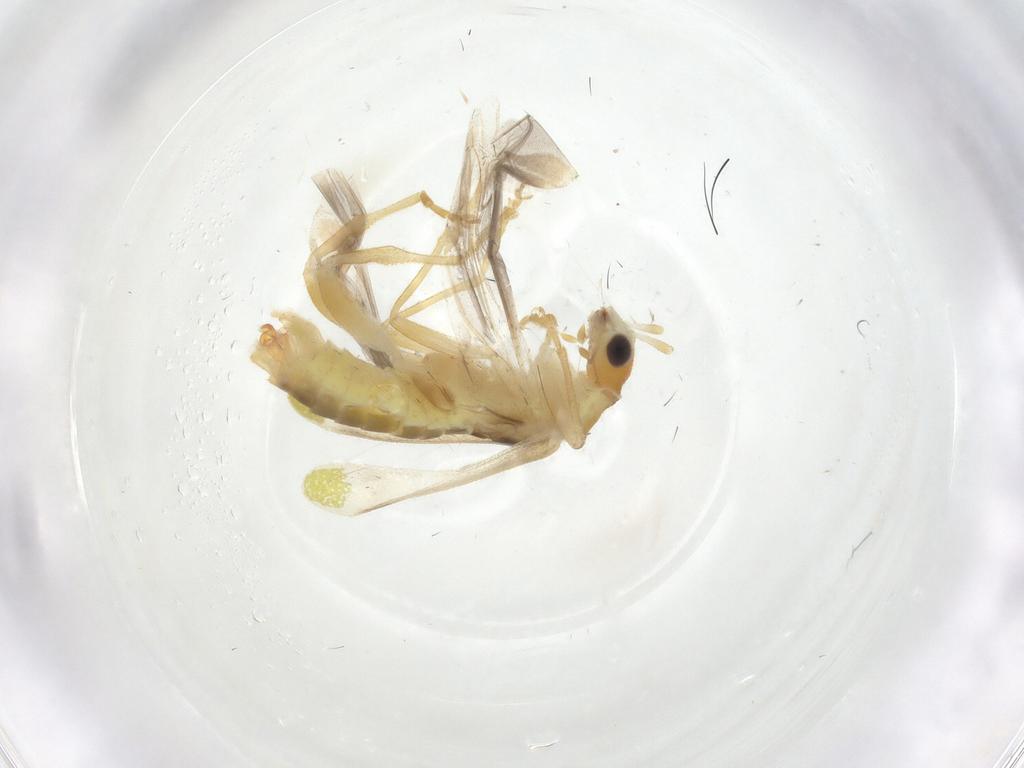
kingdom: Animalia
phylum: Arthropoda
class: Insecta
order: Coleoptera
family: Cantharidae
